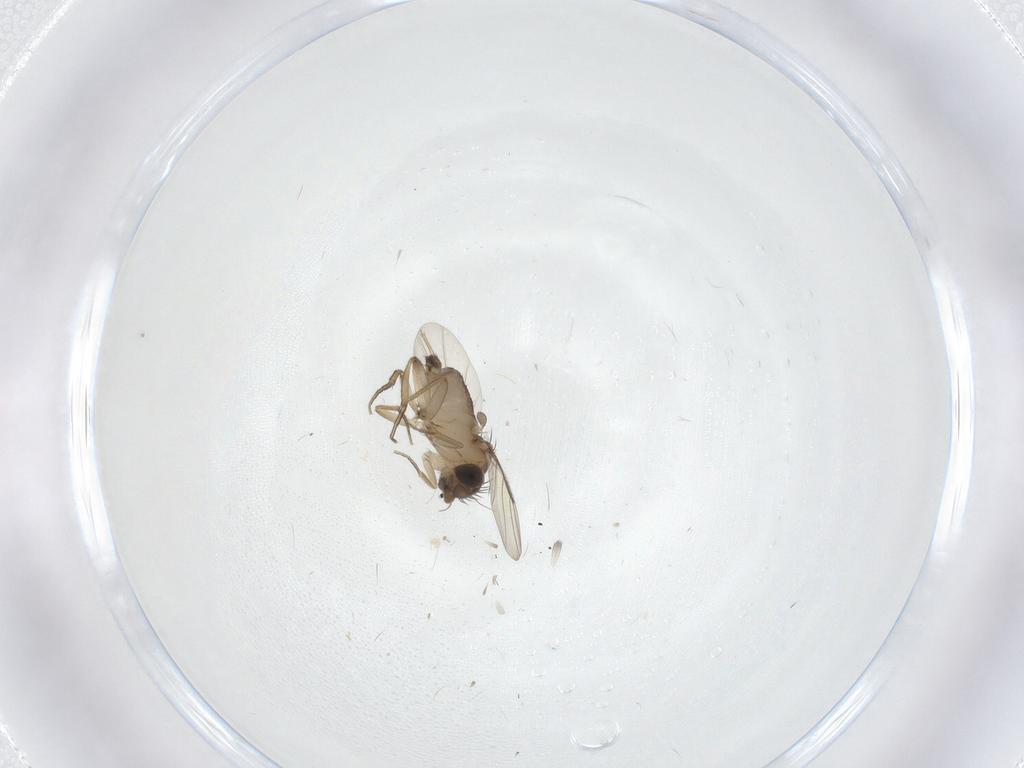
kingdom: Animalia
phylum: Arthropoda
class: Insecta
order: Diptera
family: Phoridae
